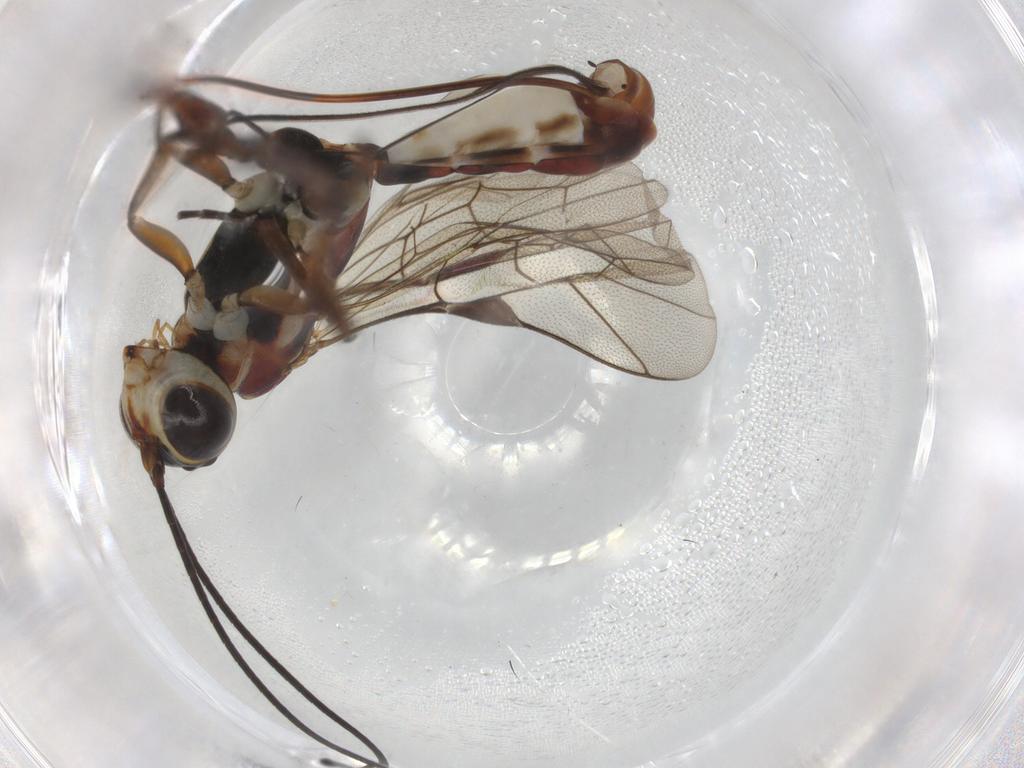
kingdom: Animalia
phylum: Arthropoda
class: Insecta
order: Hymenoptera
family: Ichneumonidae
